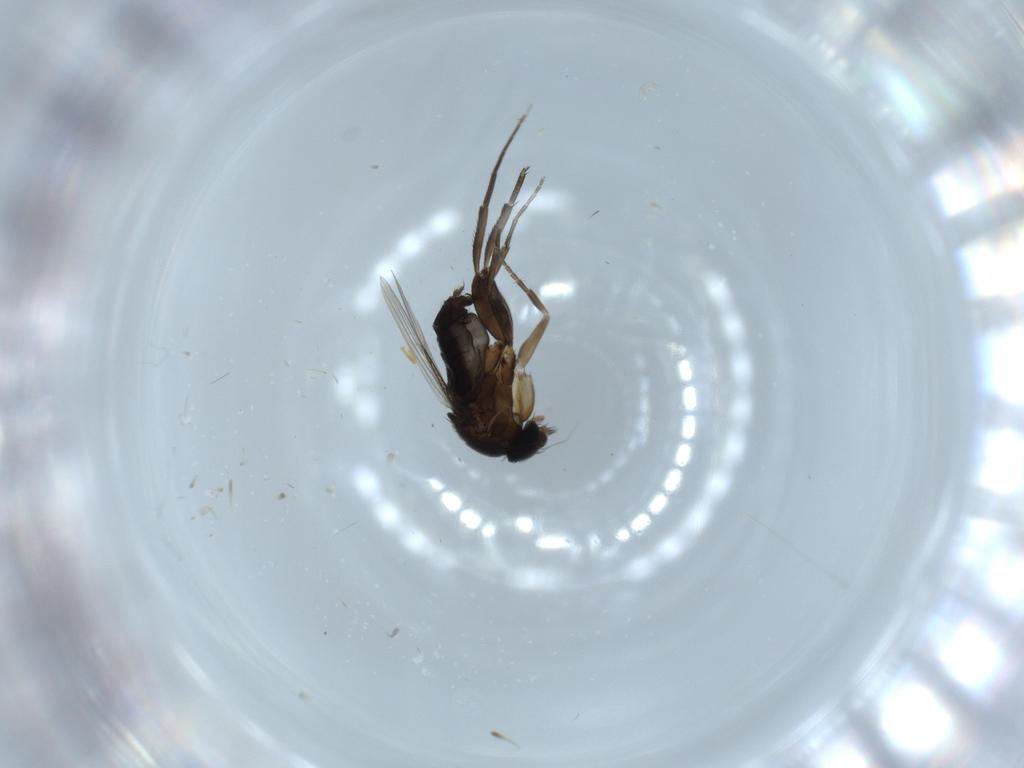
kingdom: Animalia
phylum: Arthropoda
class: Insecta
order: Diptera
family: Phoridae
